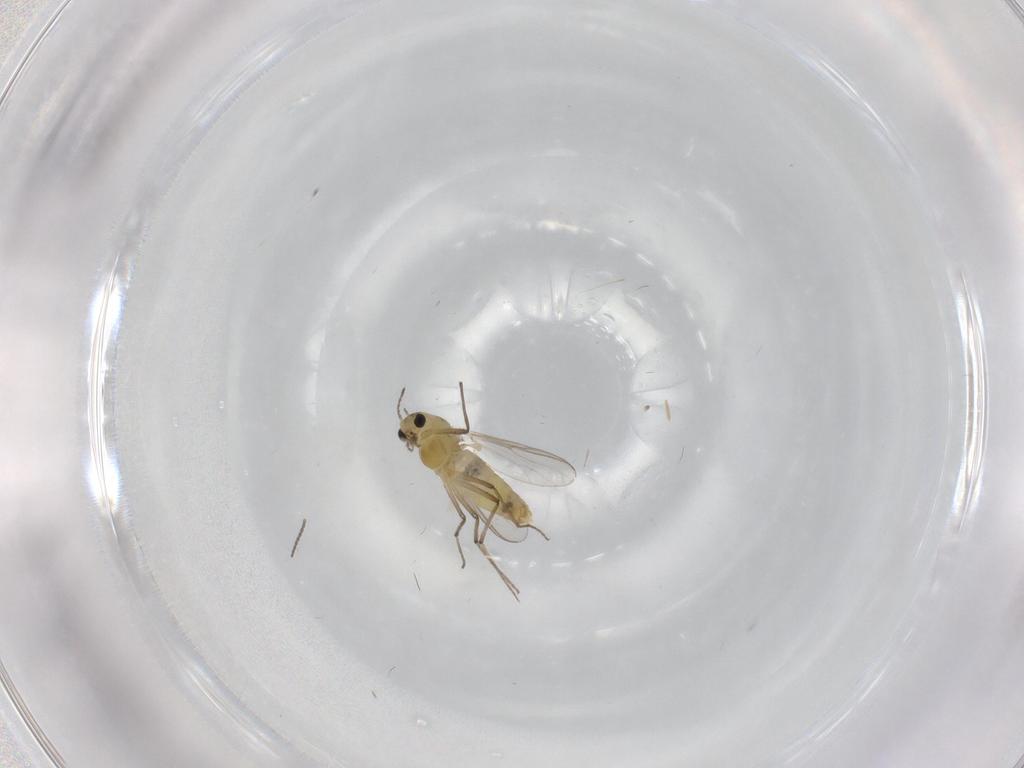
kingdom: Animalia
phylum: Arthropoda
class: Insecta
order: Diptera
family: Chironomidae
